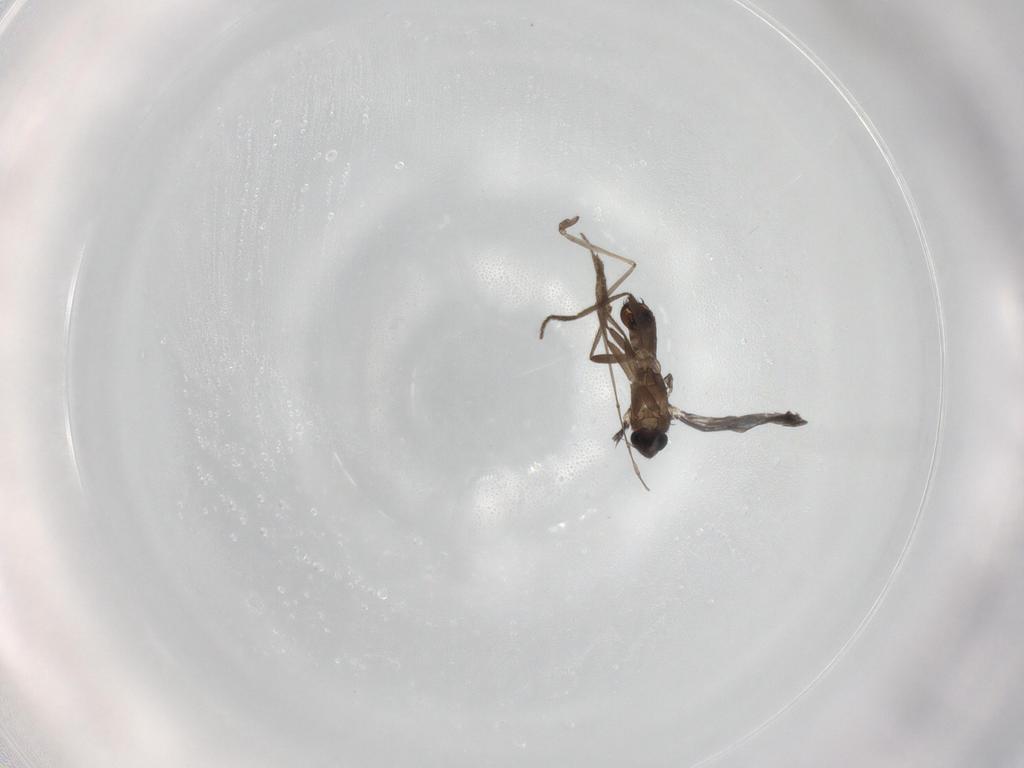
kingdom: Animalia
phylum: Arthropoda
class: Insecta
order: Diptera
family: Cecidomyiidae
